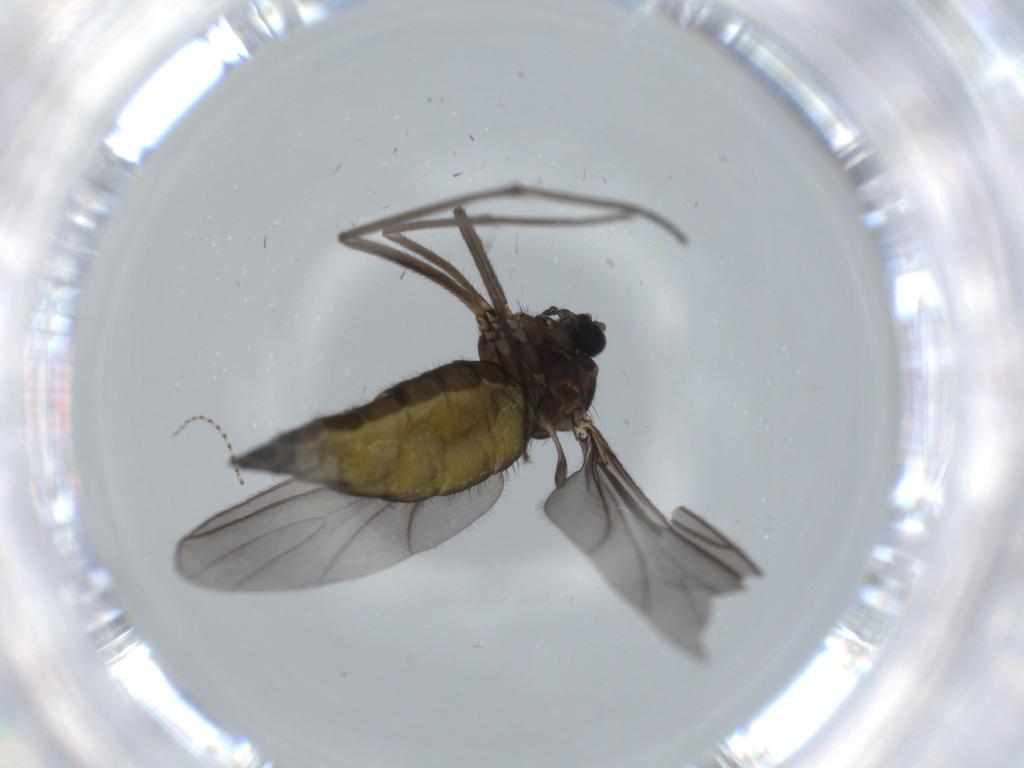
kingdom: Animalia
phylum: Arthropoda
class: Insecta
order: Diptera
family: Sciaridae
